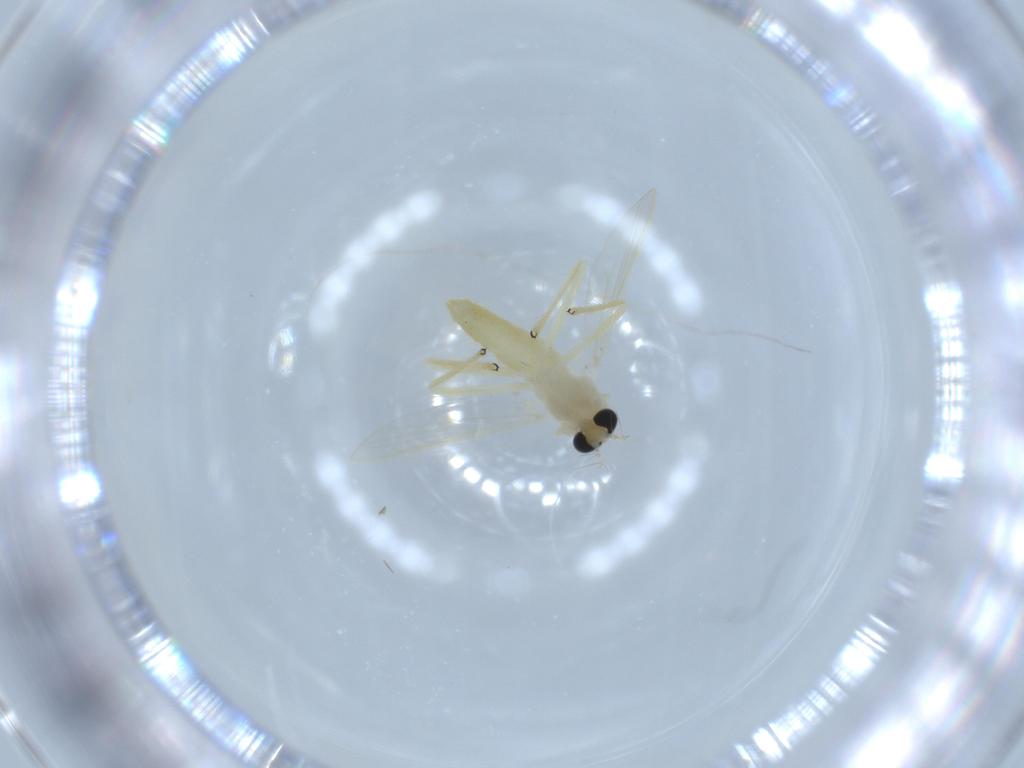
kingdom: Animalia
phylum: Arthropoda
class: Insecta
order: Diptera
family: Chironomidae
